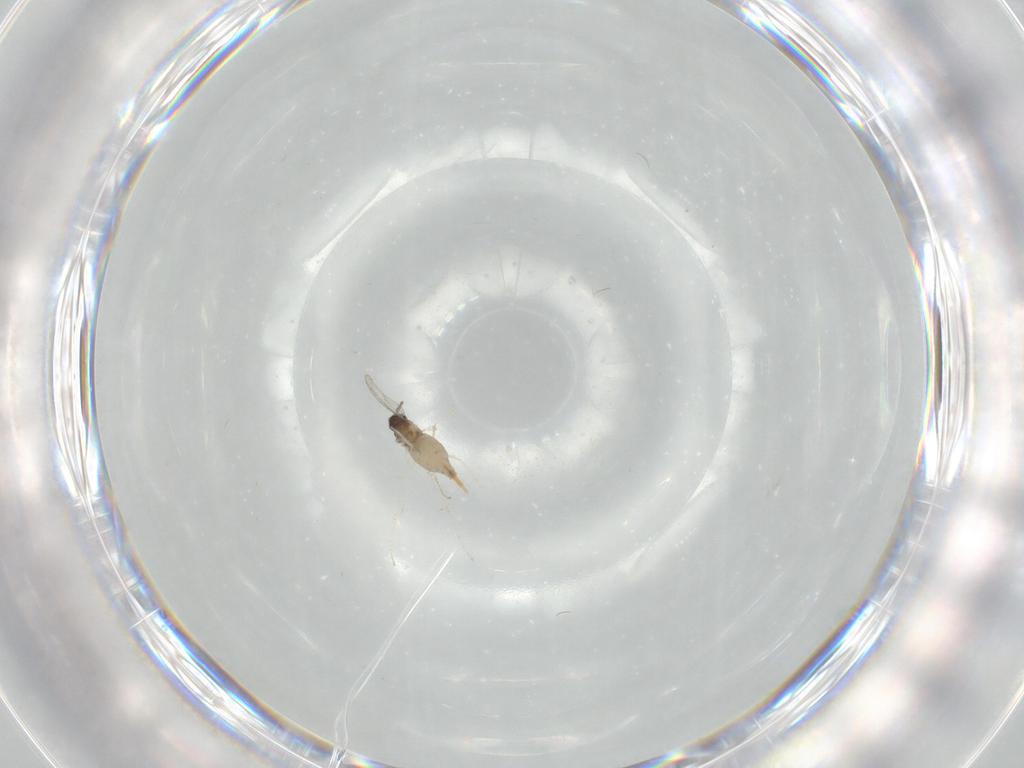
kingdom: Animalia
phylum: Arthropoda
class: Insecta
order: Diptera
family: Cecidomyiidae
